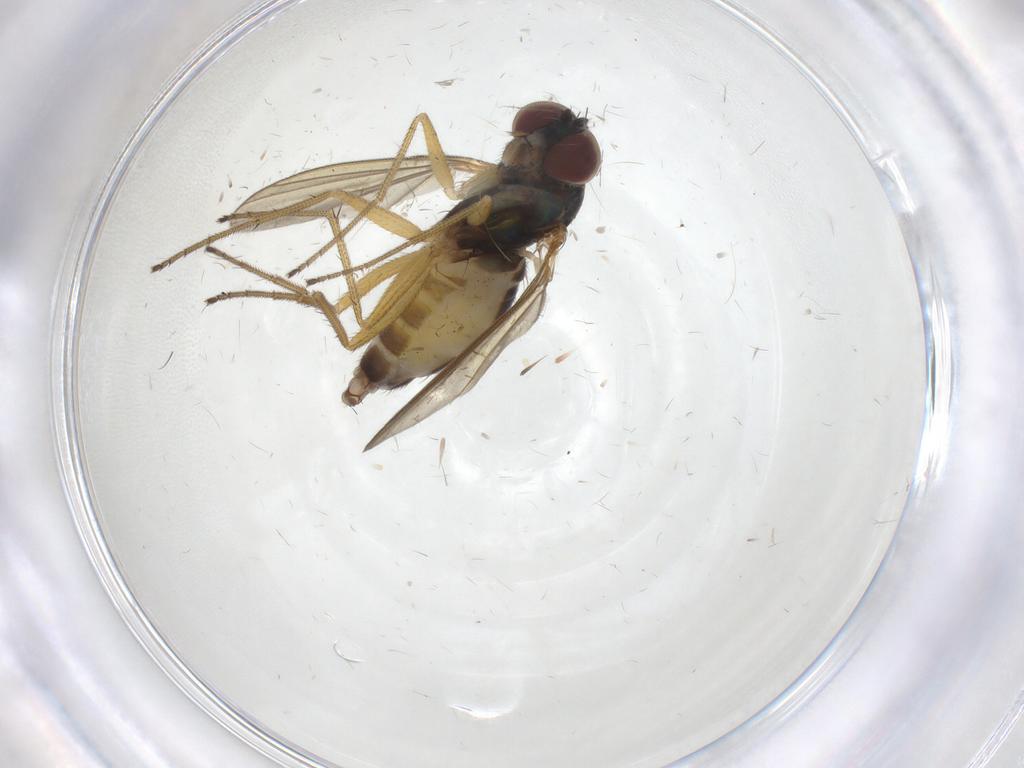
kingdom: Animalia
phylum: Arthropoda
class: Insecta
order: Diptera
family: Dolichopodidae
